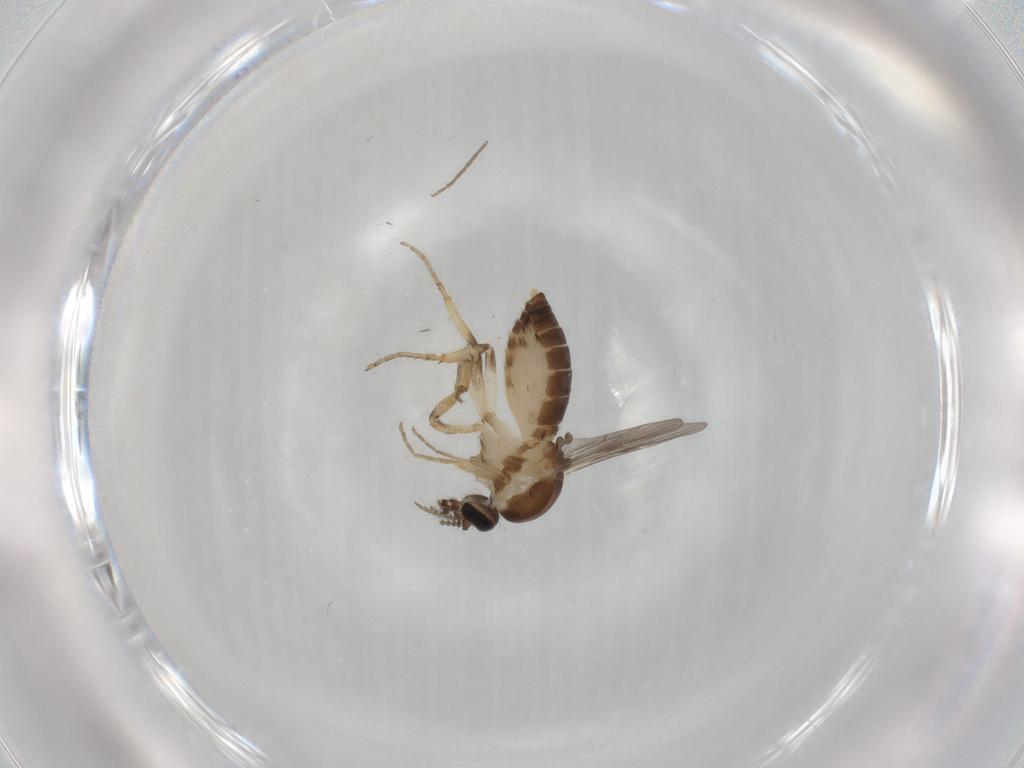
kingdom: Animalia
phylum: Arthropoda
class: Insecta
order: Diptera
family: Ceratopogonidae
